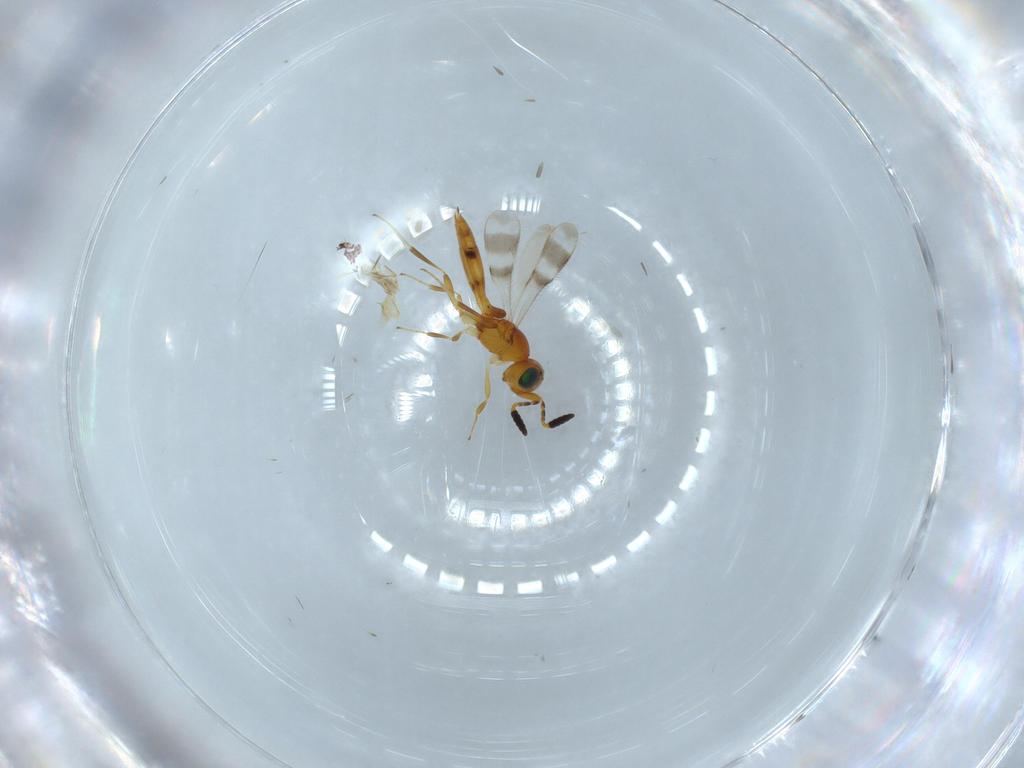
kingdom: Animalia
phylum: Arthropoda
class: Insecta
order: Hymenoptera
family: Scelionidae
